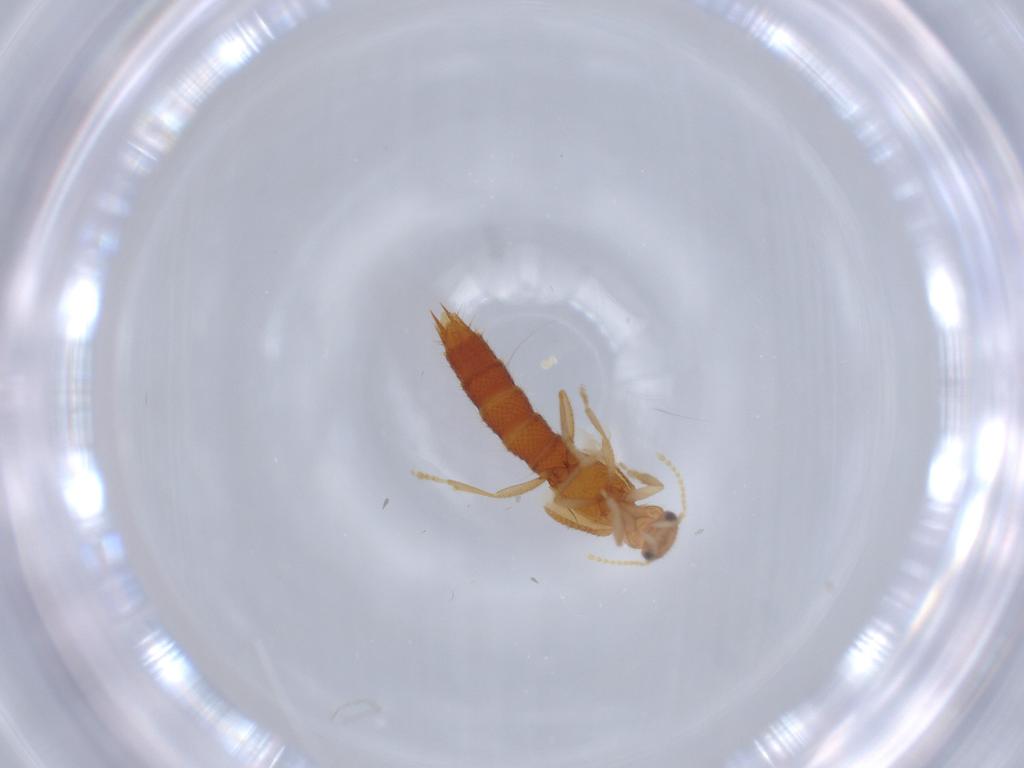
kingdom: Animalia
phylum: Arthropoda
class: Insecta
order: Coleoptera
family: Staphylinidae
